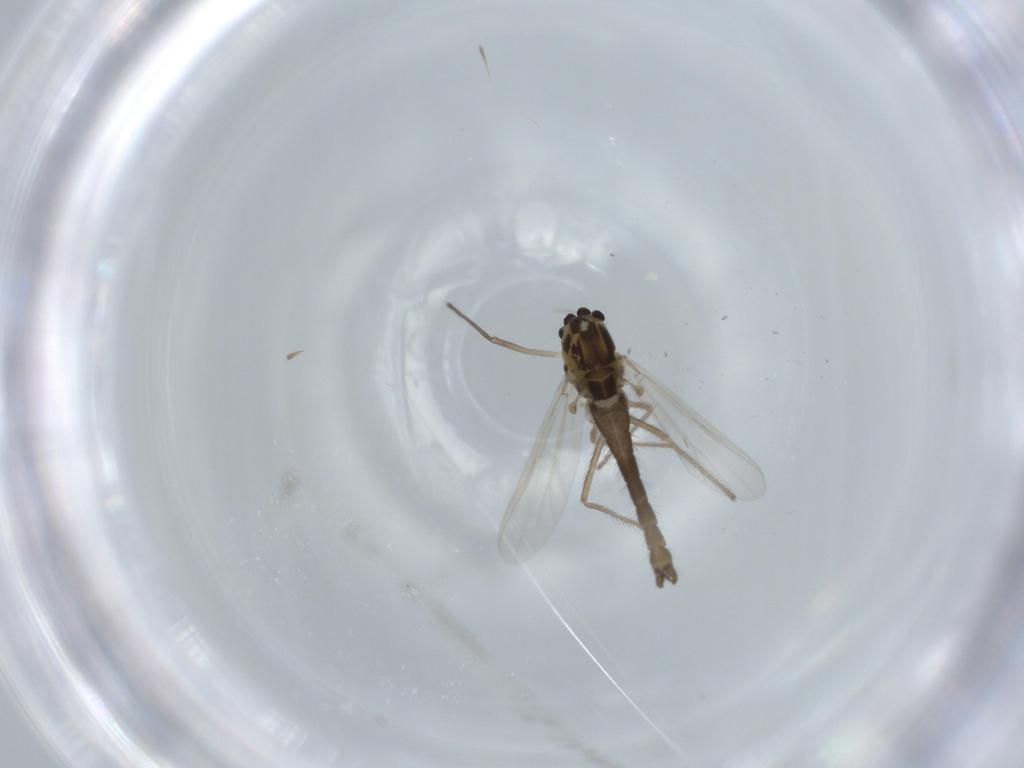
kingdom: Animalia
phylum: Arthropoda
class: Insecta
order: Diptera
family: Chironomidae
